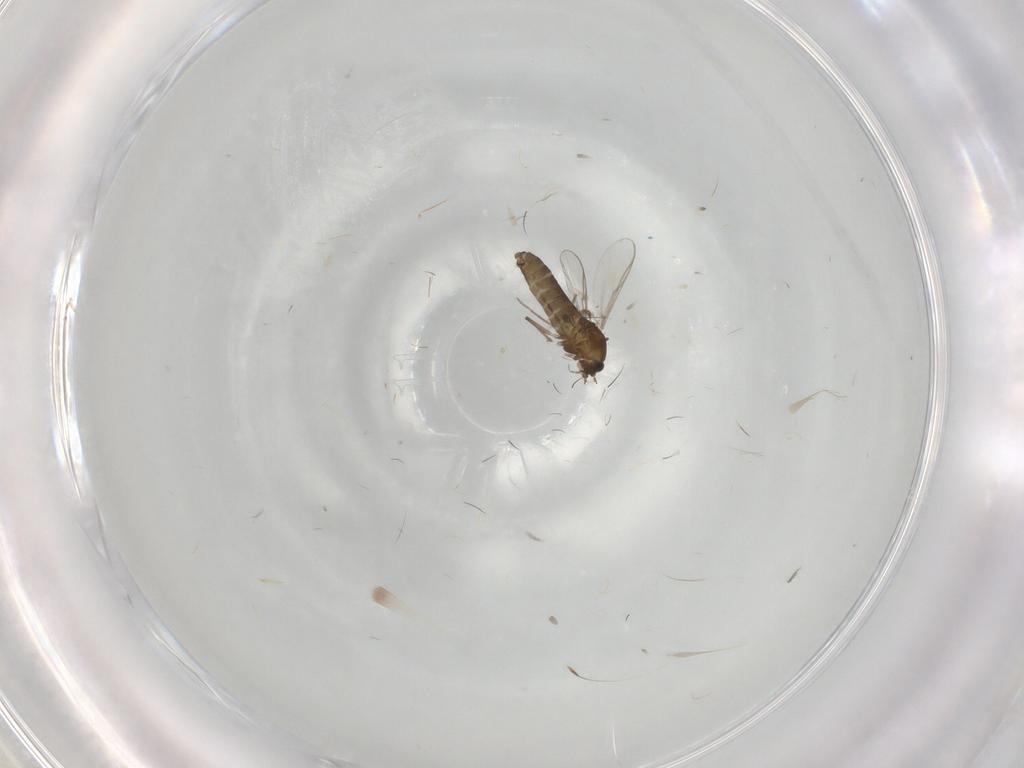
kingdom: Animalia
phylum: Arthropoda
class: Insecta
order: Diptera
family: Chironomidae
